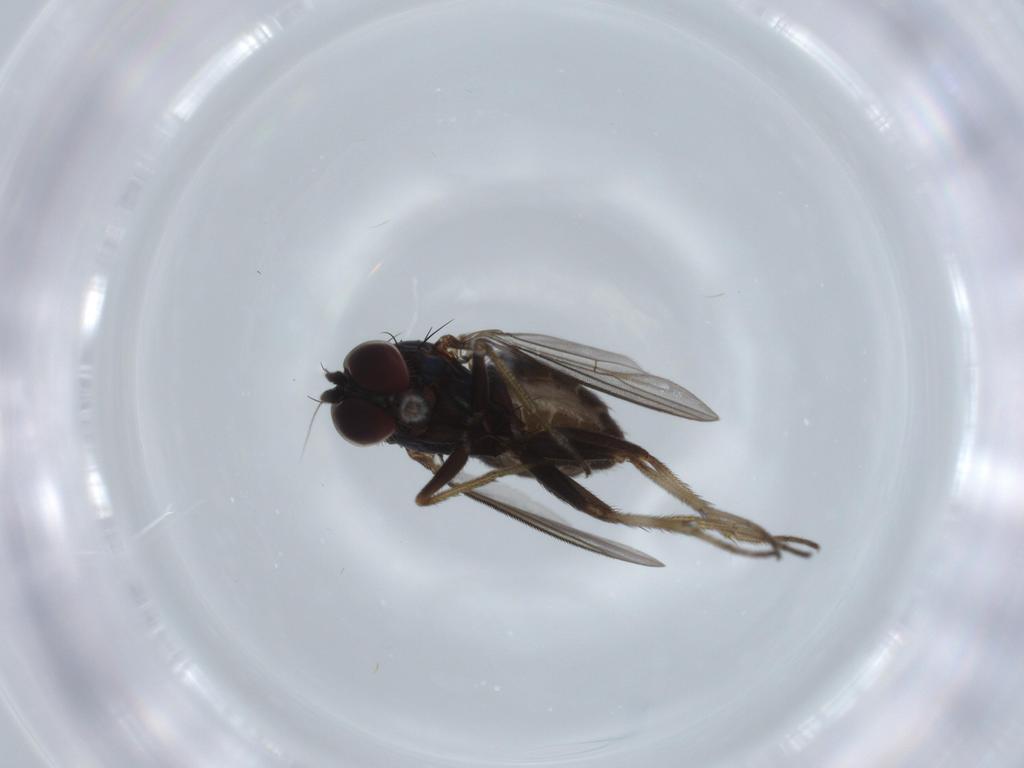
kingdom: Animalia
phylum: Arthropoda
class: Insecta
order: Diptera
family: Dolichopodidae
